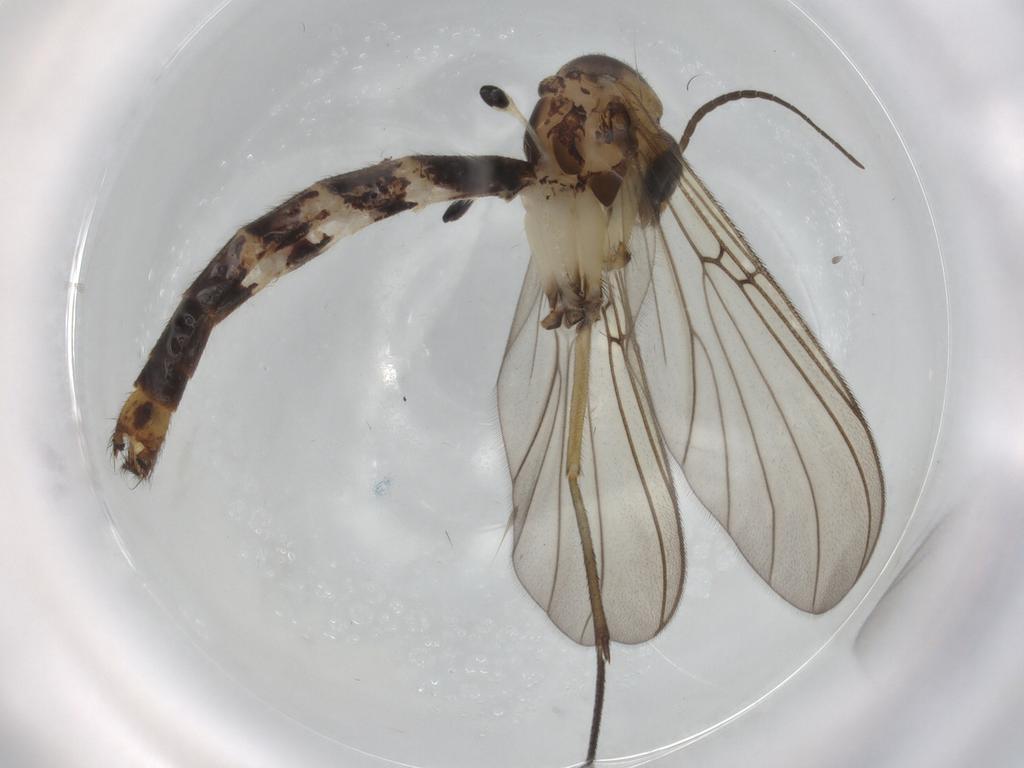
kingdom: Animalia
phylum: Arthropoda
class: Insecta
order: Diptera
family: Mycetophilidae
